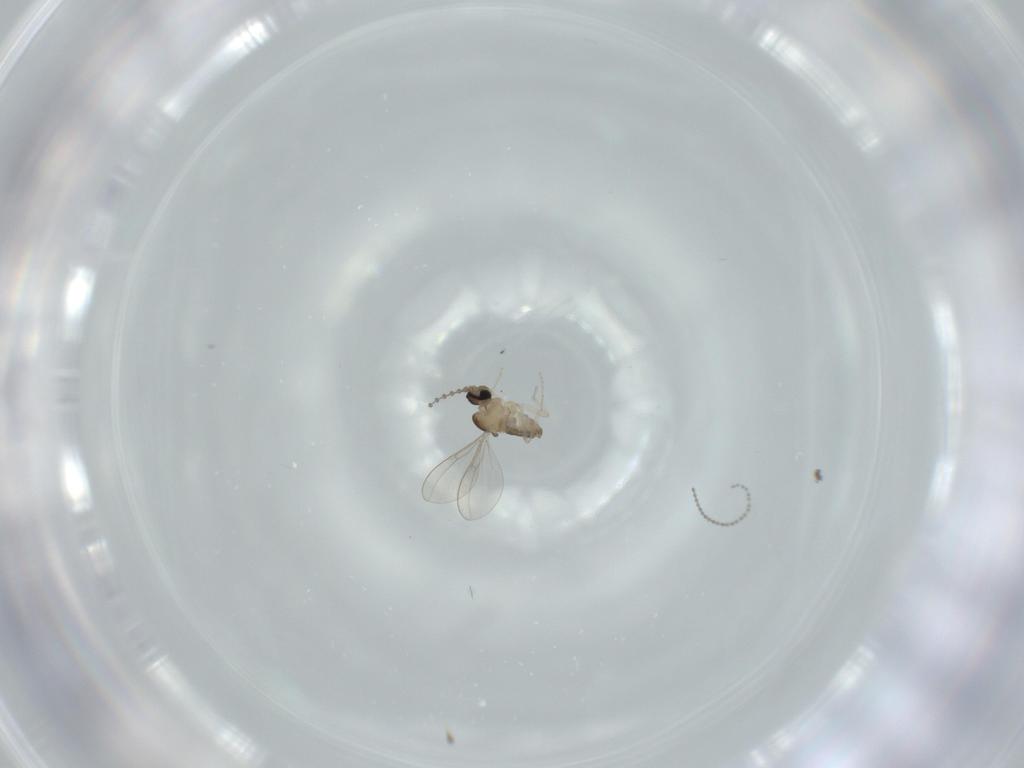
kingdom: Animalia
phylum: Arthropoda
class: Insecta
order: Diptera
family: Cecidomyiidae
